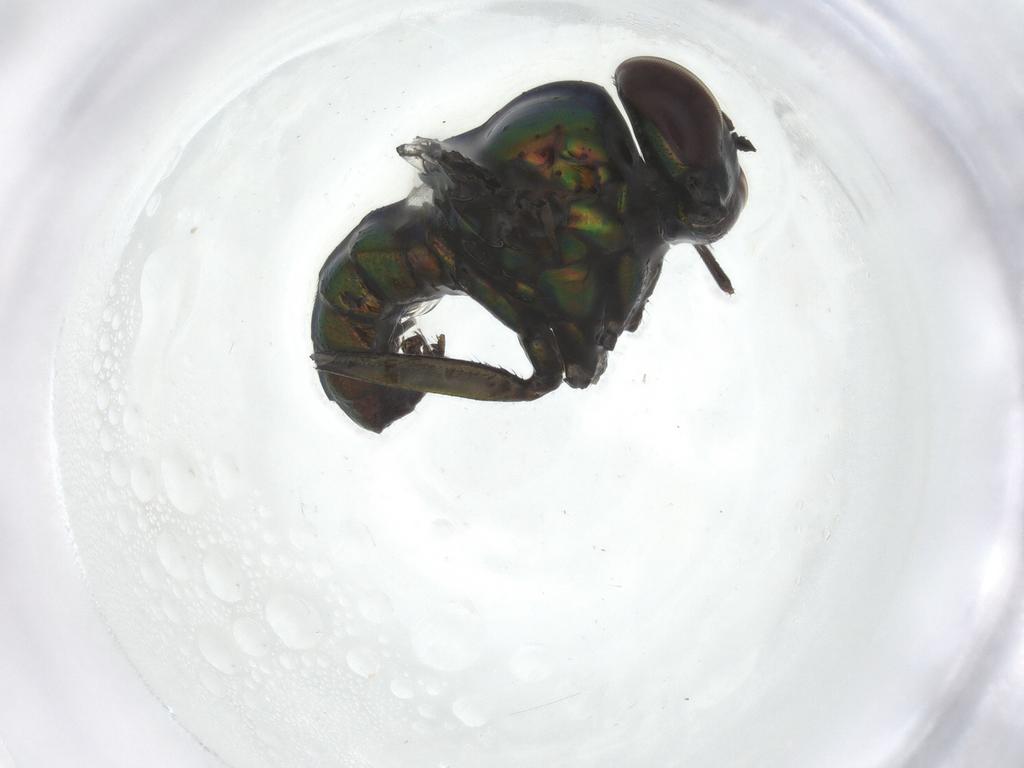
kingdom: Animalia
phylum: Arthropoda
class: Insecta
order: Diptera
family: Dolichopodidae
